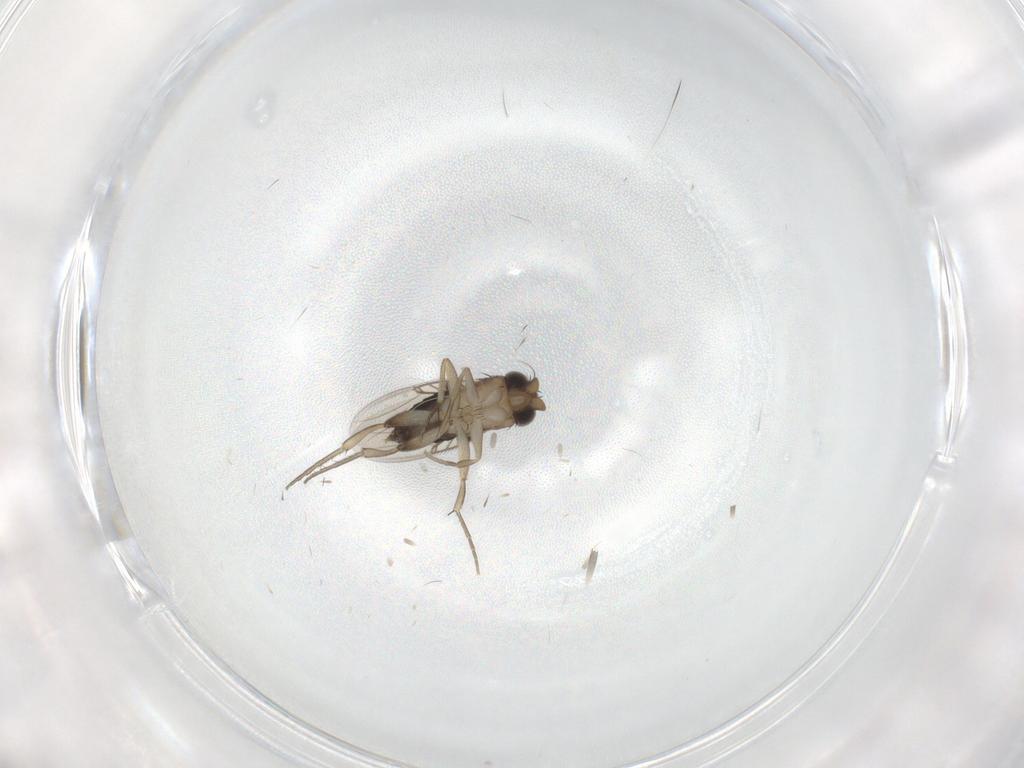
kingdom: Animalia
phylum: Arthropoda
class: Insecta
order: Diptera
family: Phoridae
